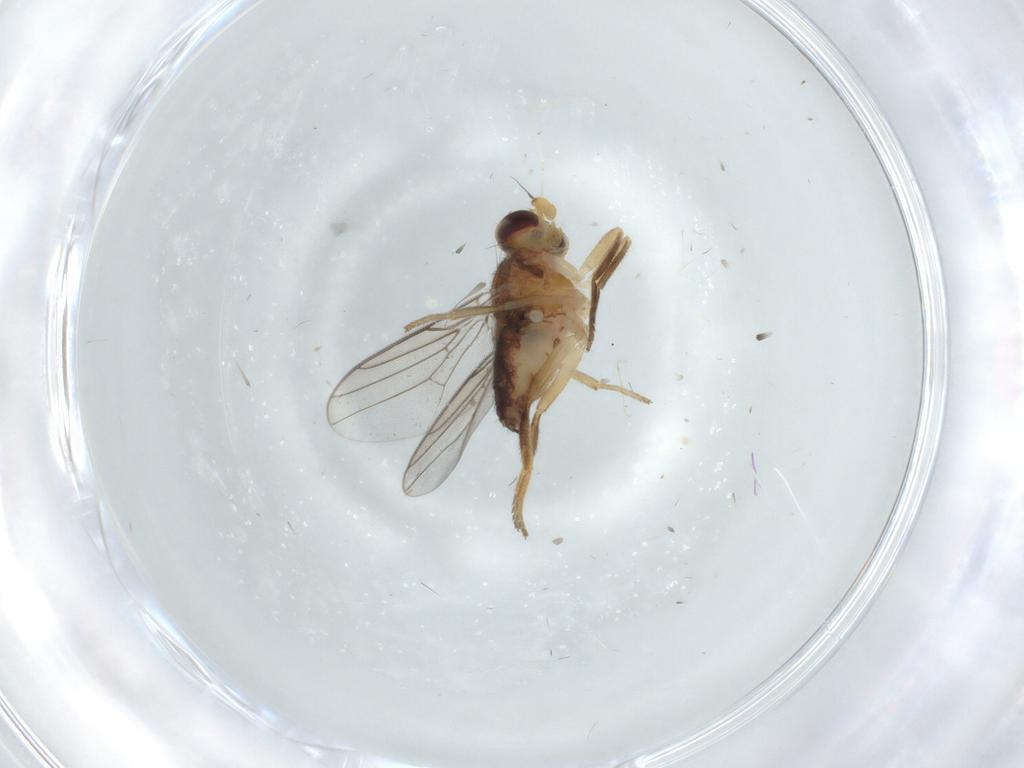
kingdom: Animalia
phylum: Arthropoda
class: Insecta
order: Diptera
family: Sarcophagidae
